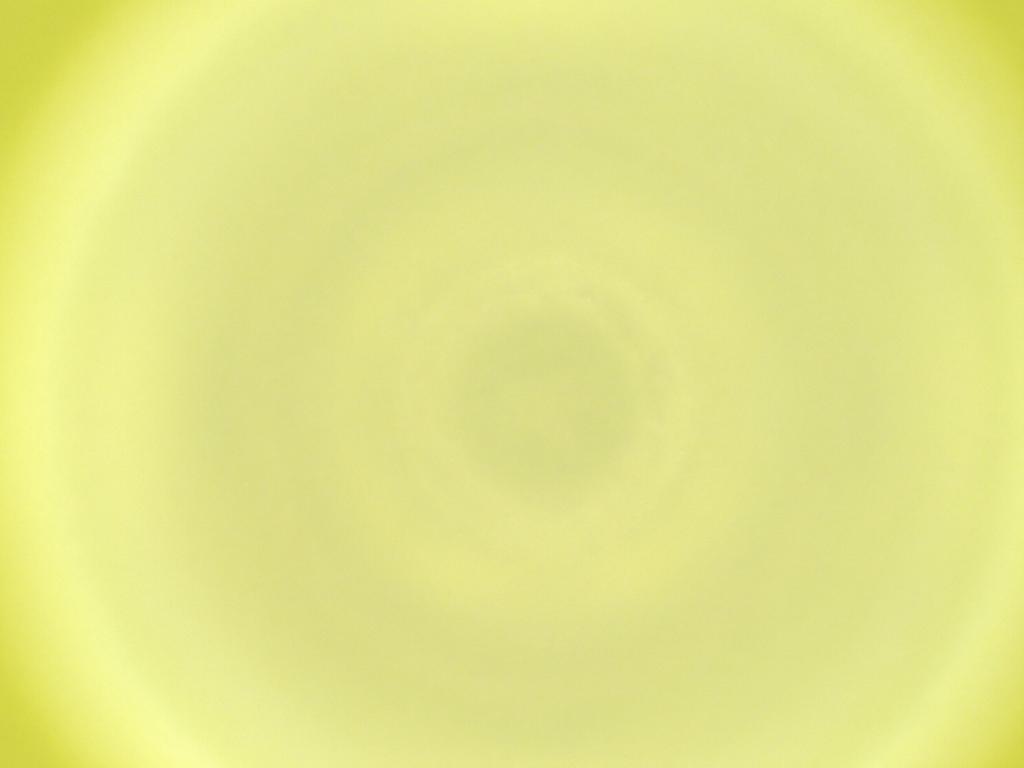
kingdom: Animalia
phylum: Arthropoda
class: Insecta
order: Diptera
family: Cecidomyiidae
